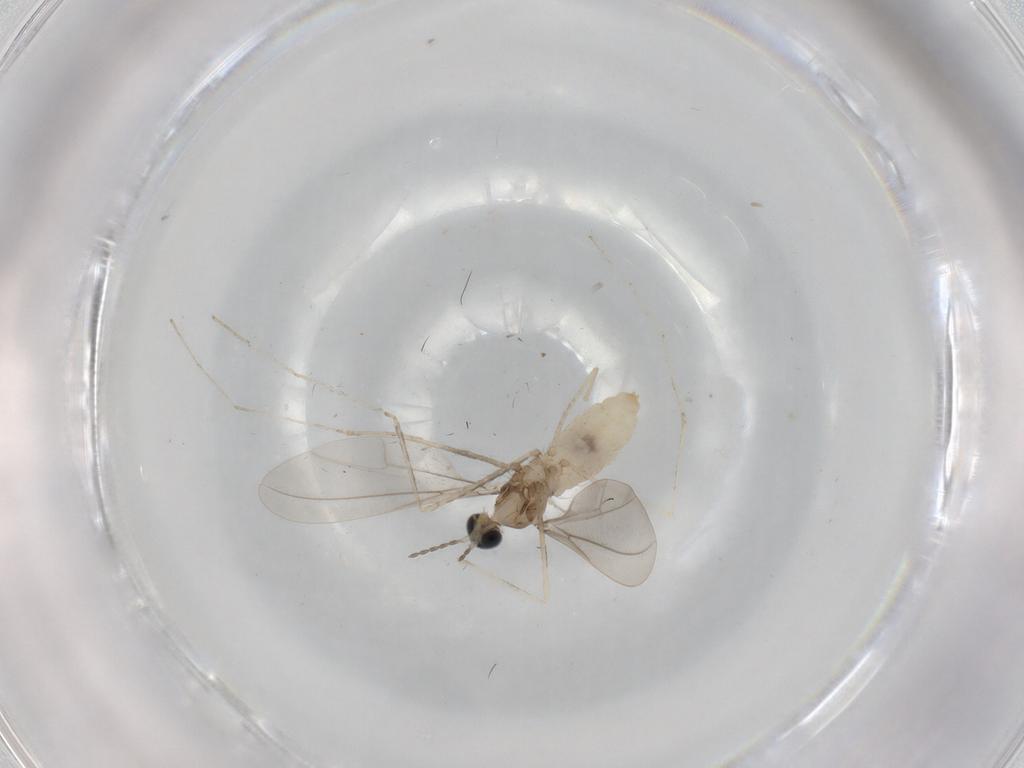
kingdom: Animalia
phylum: Arthropoda
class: Insecta
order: Diptera
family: Cecidomyiidae
